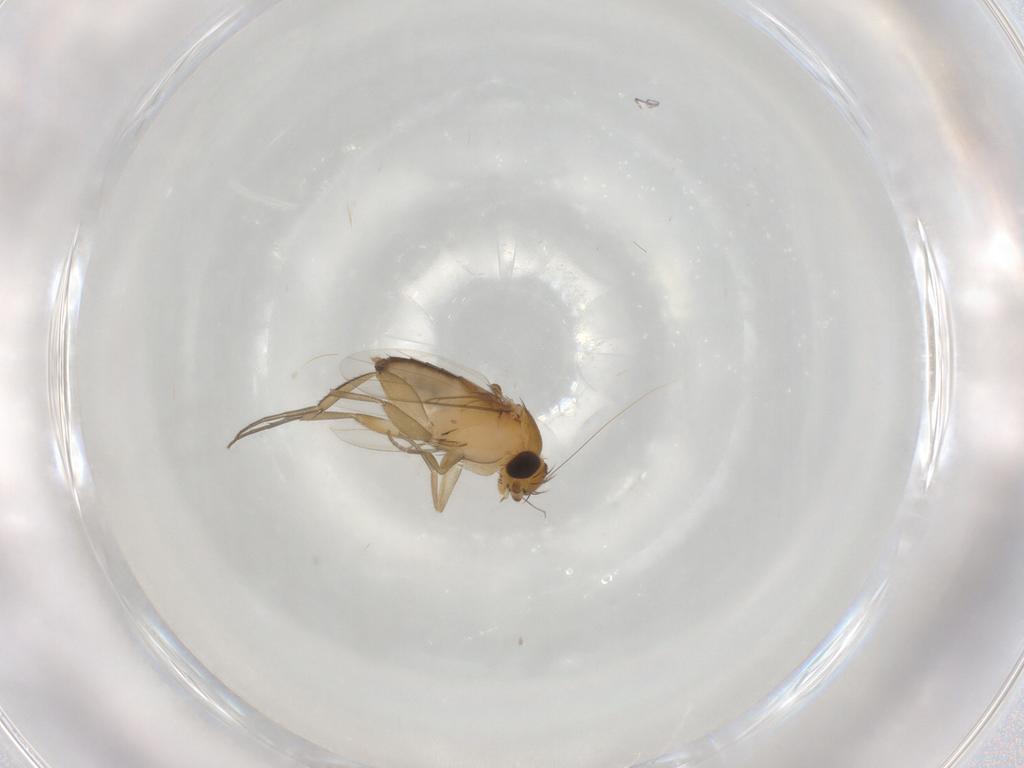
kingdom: Animalia
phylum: Arthropoda
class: Insecta
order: Diptera
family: Phoridae
